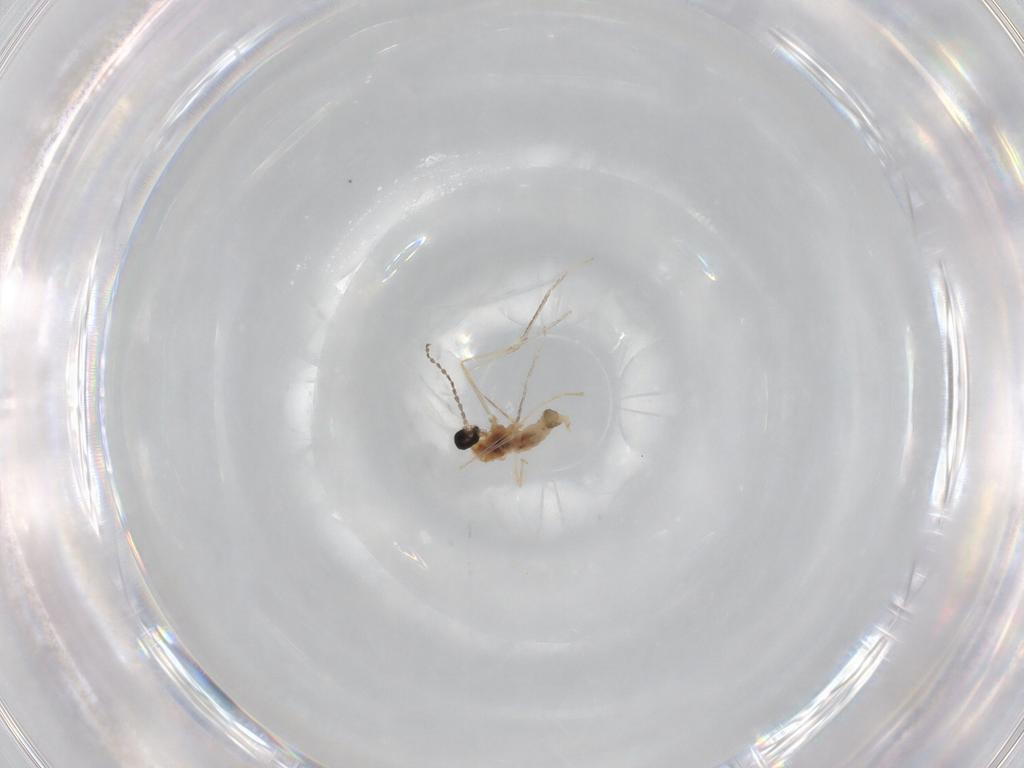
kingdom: Animalia
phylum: Arthropoda
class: Insecta
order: Diptera
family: Cecidomyiidae
